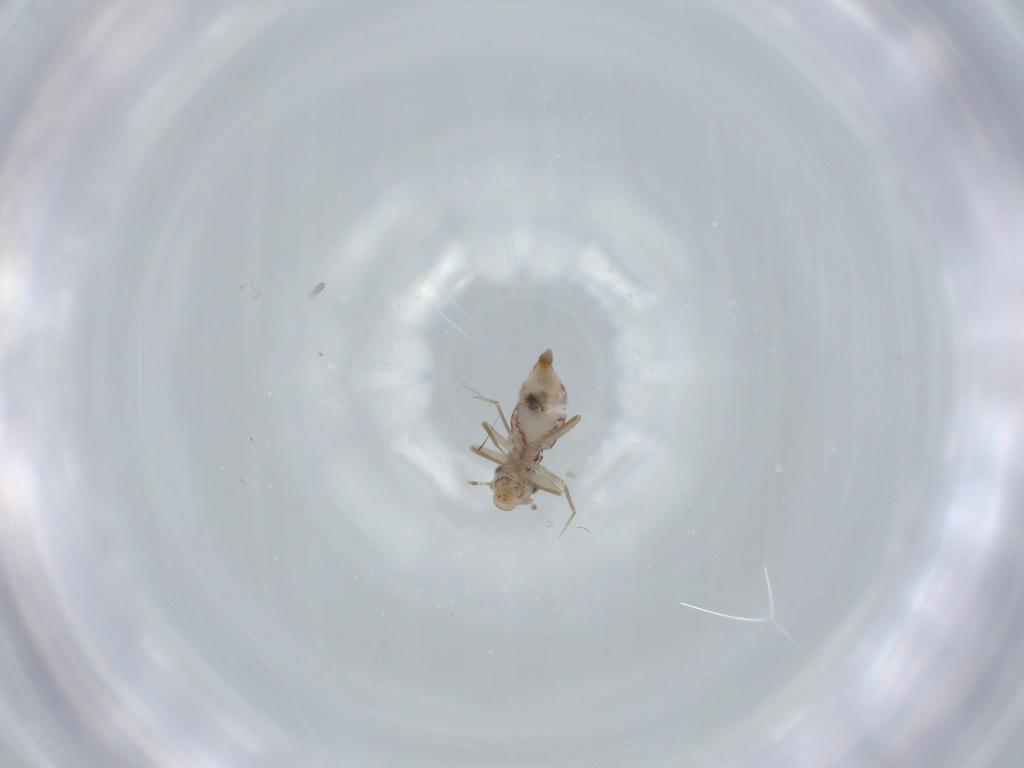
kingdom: Animalia
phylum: Arthropoda
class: Insecta
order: Psocodea
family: Lepidopsocidae
